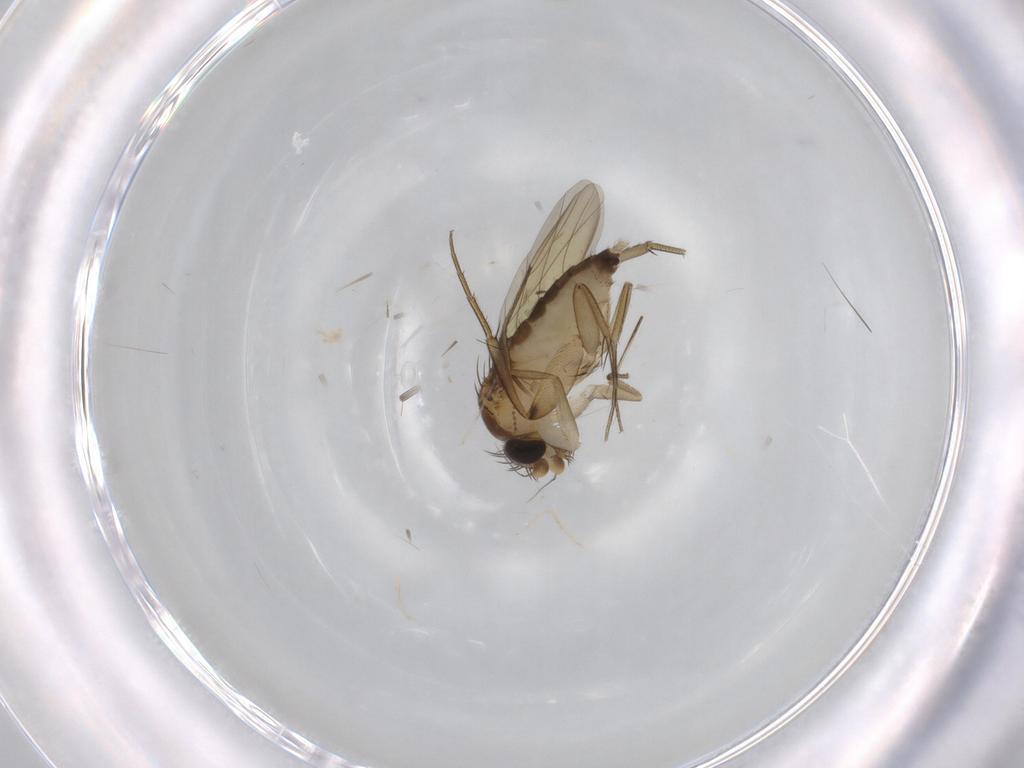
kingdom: Animalia
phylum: Arthropoda
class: Insecta
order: Diptera
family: Phoridae
